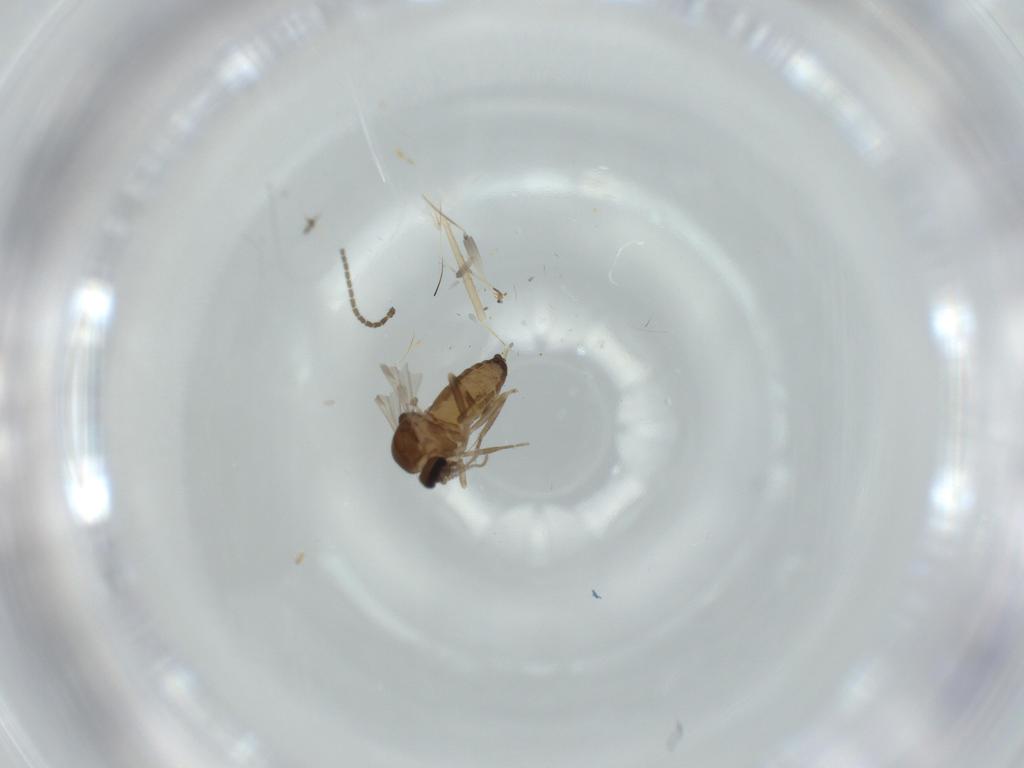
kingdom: Animalia
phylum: Arthropoda
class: Insecta
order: Diptera
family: Ceratopogonidae
